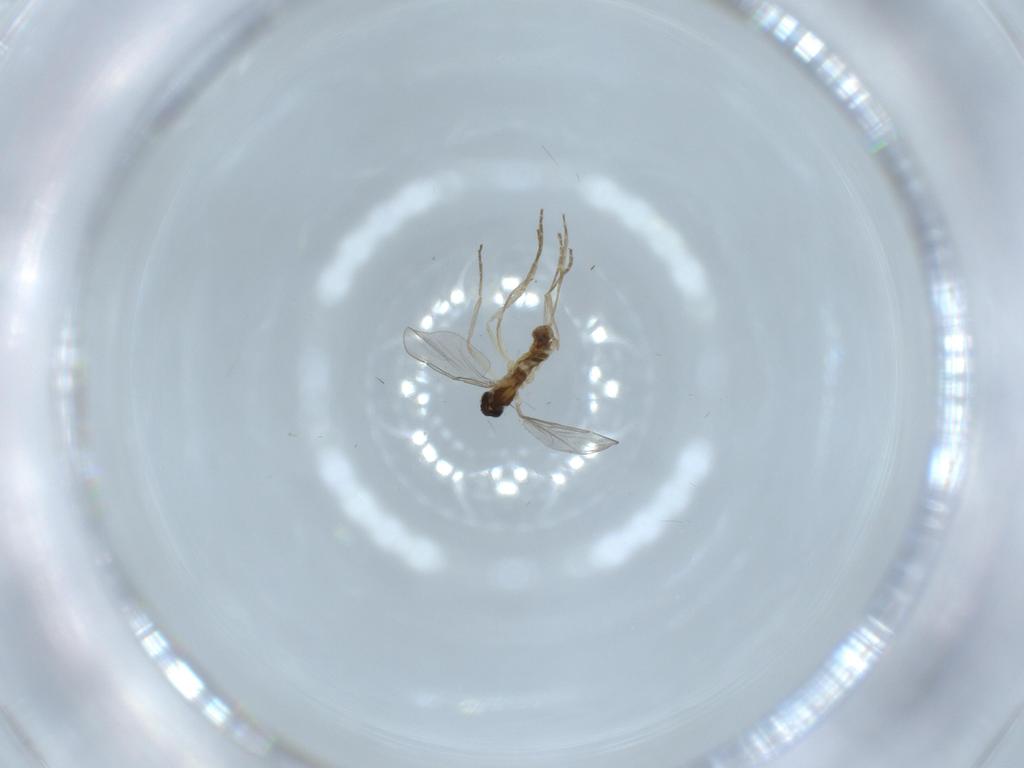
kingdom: Animalia
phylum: Arthropoda
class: Insecta
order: Diptera
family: Cecidomyiidae
